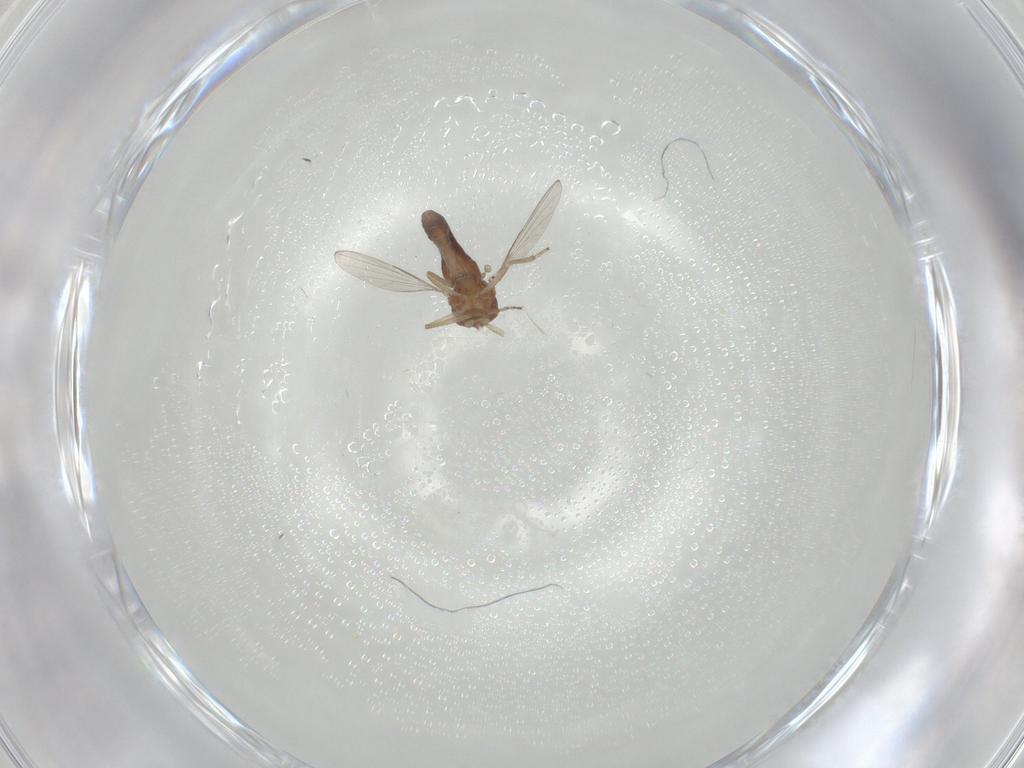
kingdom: Animalia
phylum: Arthropoda
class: Insecta
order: Diptera
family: Ceratopogonidae
